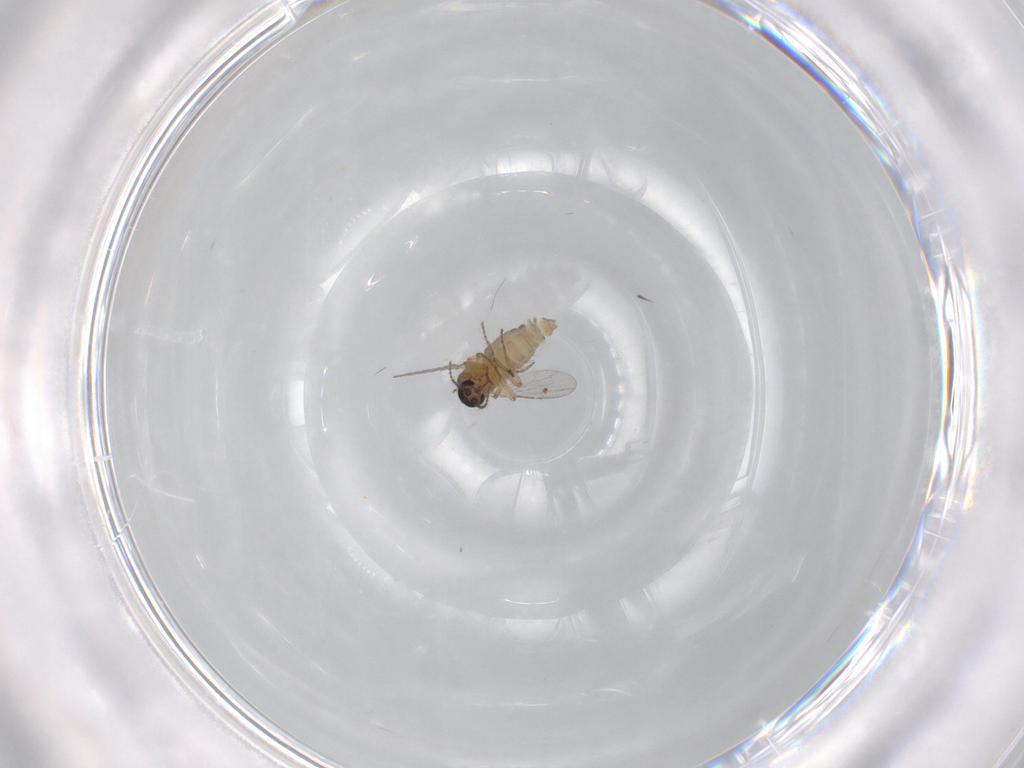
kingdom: Animalia
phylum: Arthropoda
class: Insecta
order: Diptera
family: Ceratopogonidae
